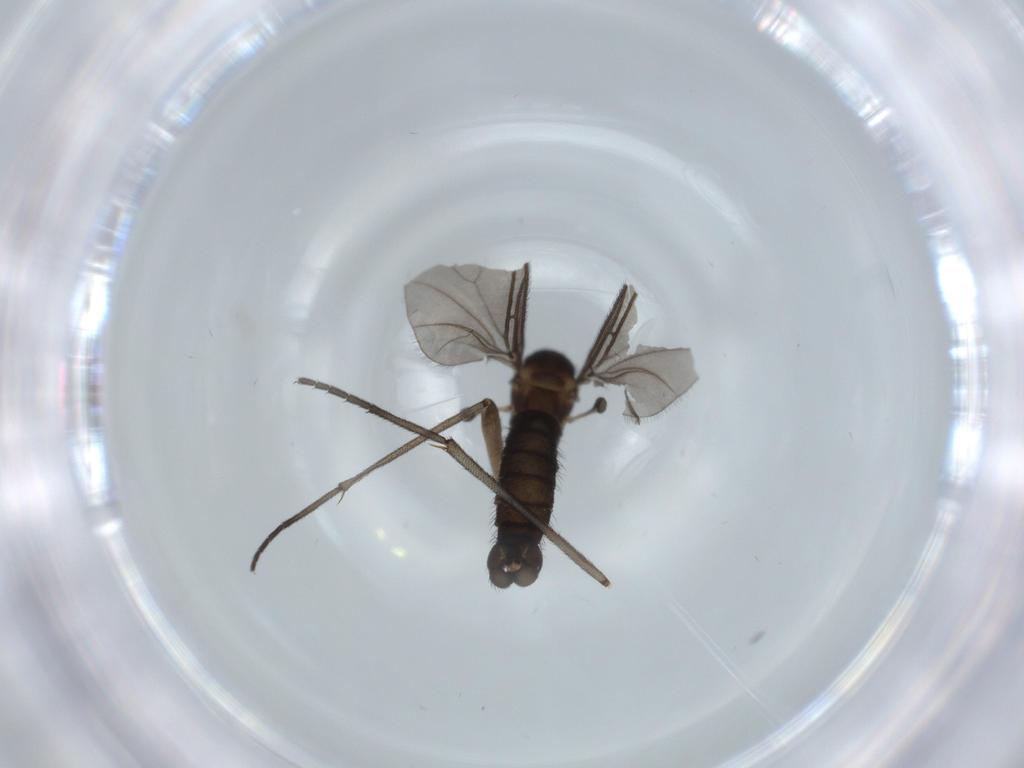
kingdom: Animalia
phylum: Arthropoda
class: Insecta
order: Diptera
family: Sciaridae
